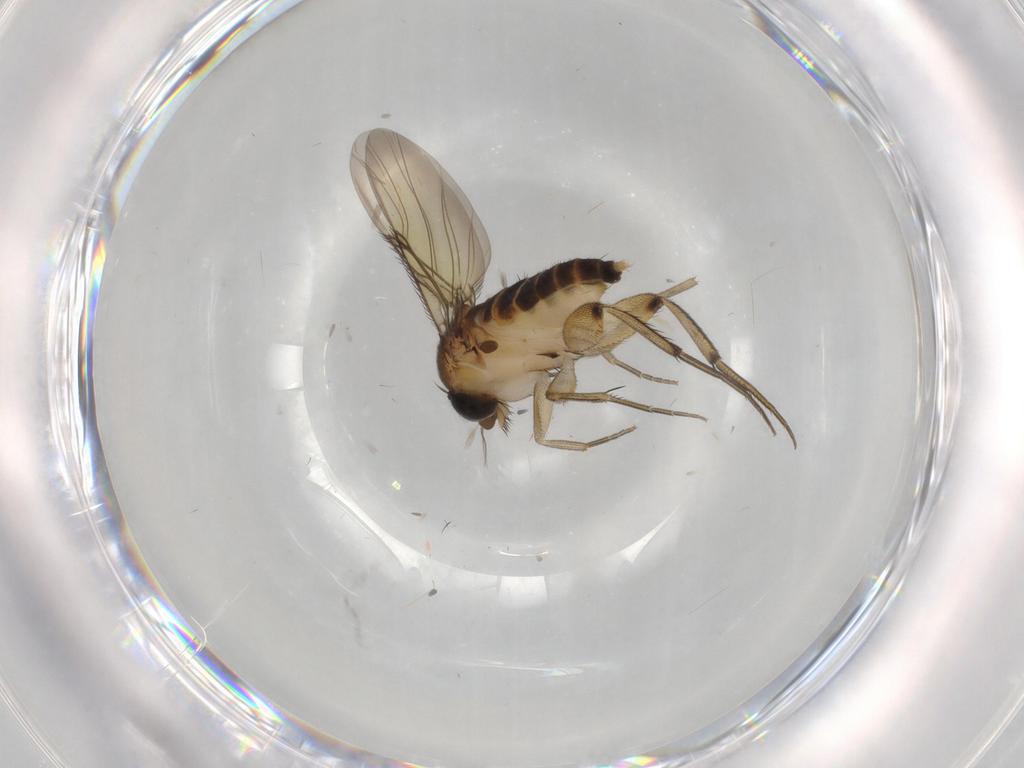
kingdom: Animalia
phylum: Arthropoda
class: Insecta
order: Diptera
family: Phoridae
